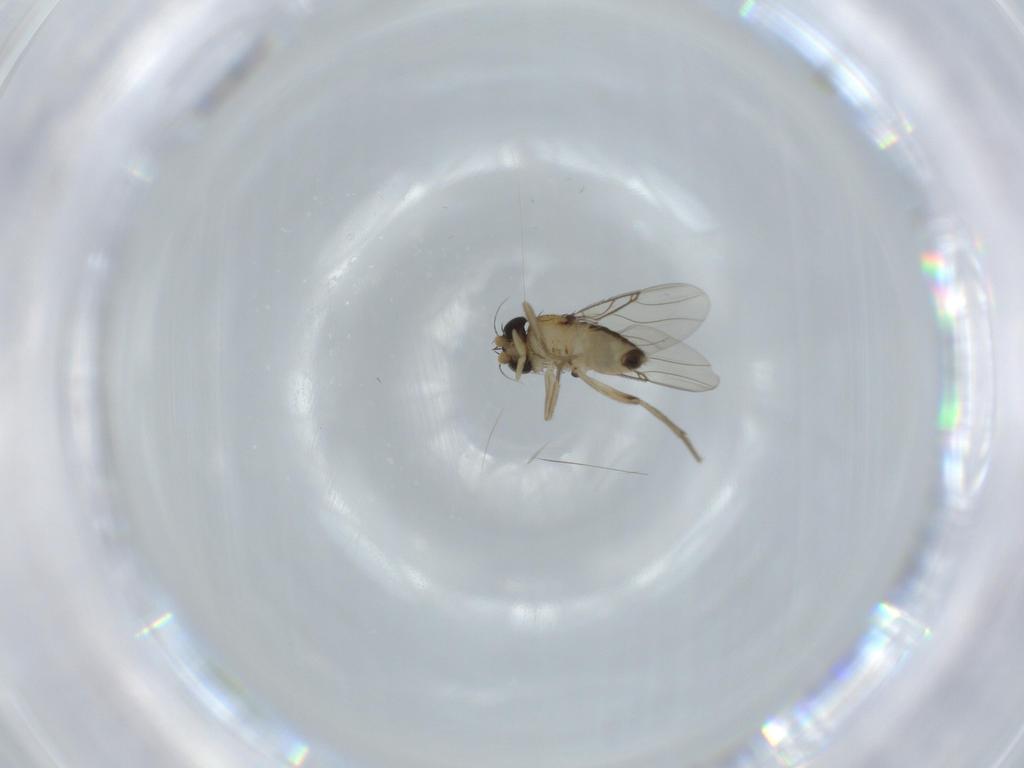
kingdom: Animalia
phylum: Arthropoda
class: Insecta
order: Diptera
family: Phoridae
